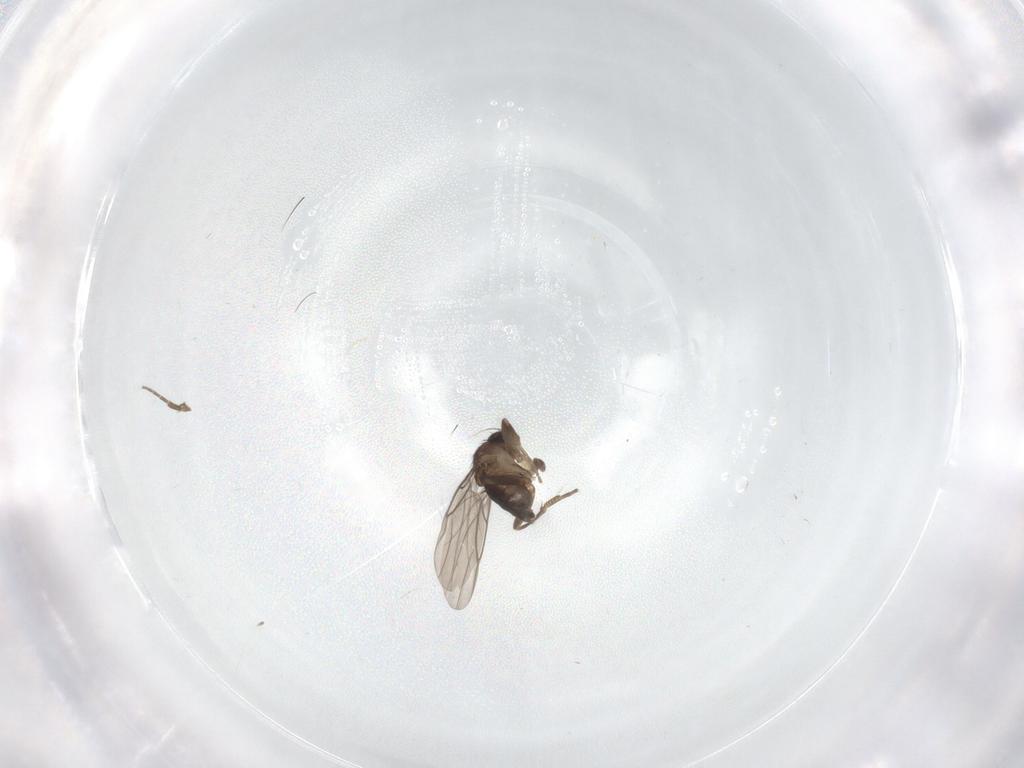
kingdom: Animalia
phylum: Arthropoda
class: Insecta
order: Diptera
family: Phoridae
